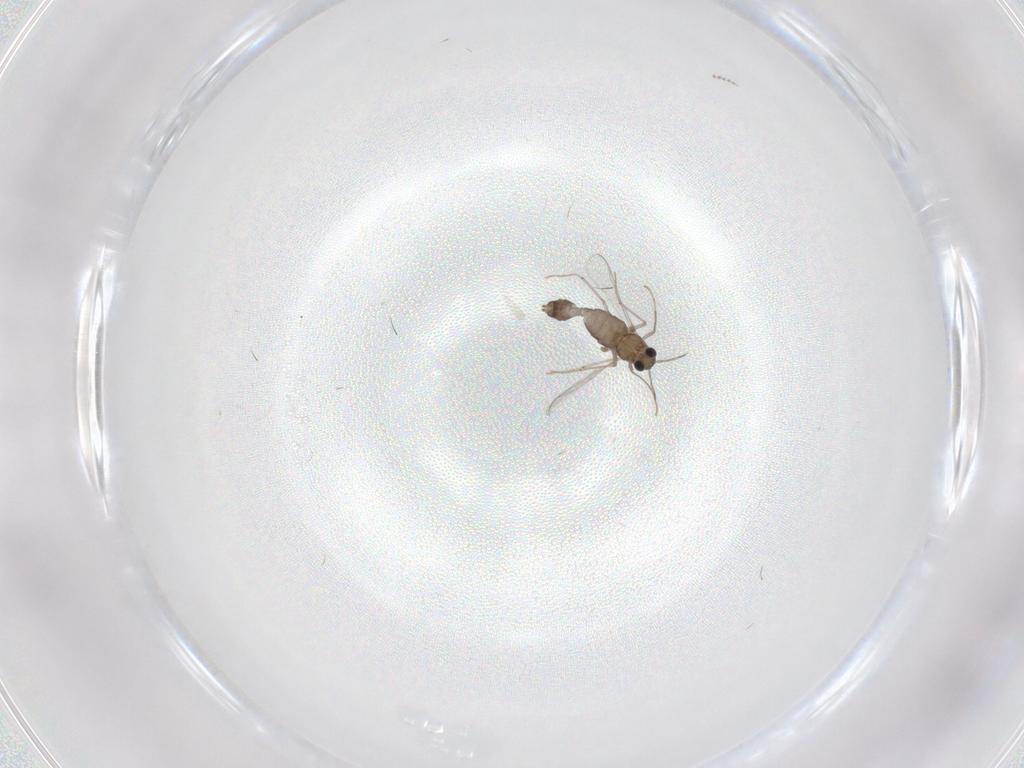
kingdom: Animalia
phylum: Arthropoda
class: Insecta
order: Diptera
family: Chironomidae
